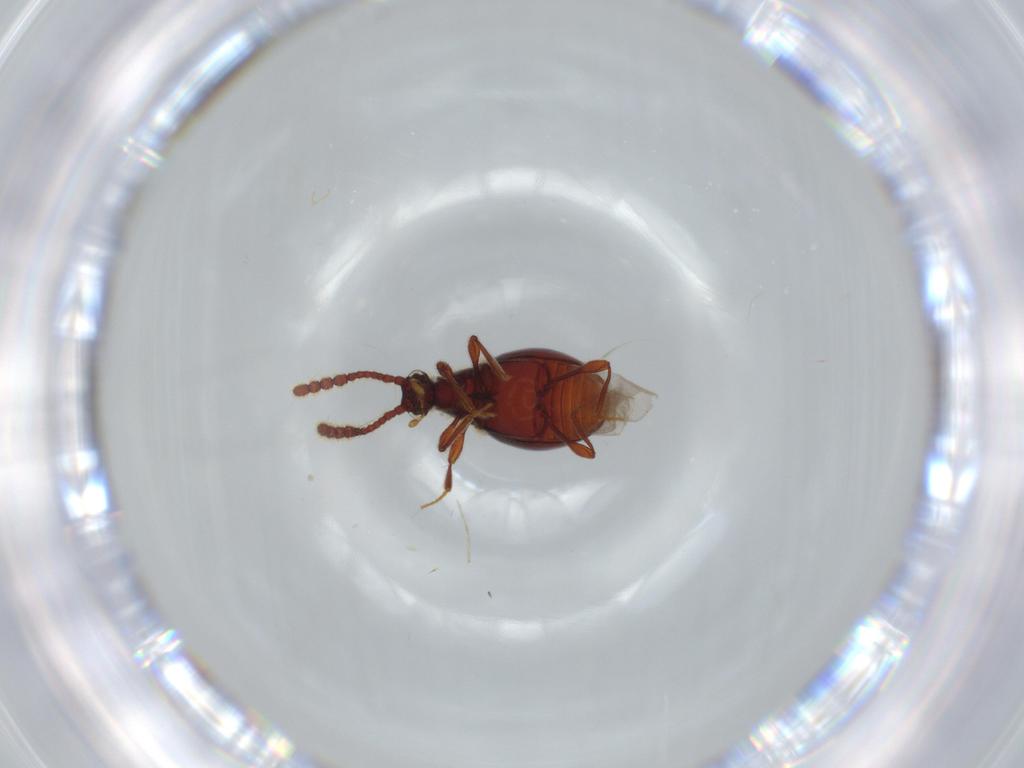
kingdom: Animalia
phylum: Arthropoda
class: Insecta
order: Coleoptera
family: Staphylinidae
